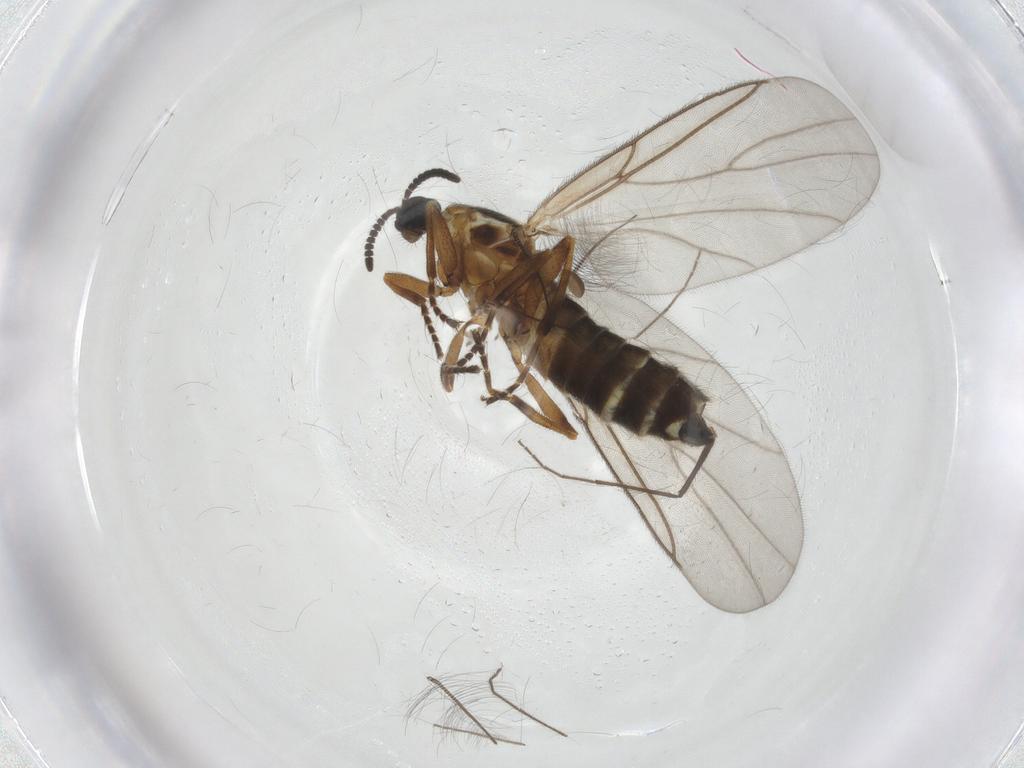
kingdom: Animalia
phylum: Arthropoda
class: Insecta
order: Diptera
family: Scatopsidae
